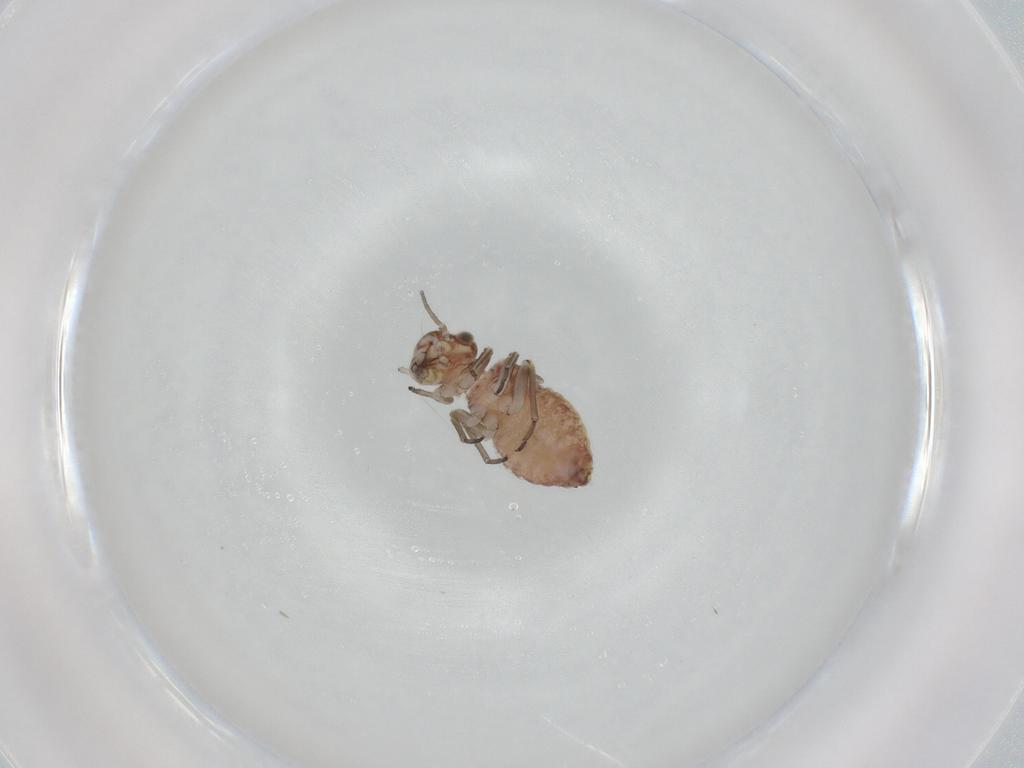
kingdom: Animalia
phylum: Arthropoda
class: Insecta
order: Psocodea
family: Psocidae
